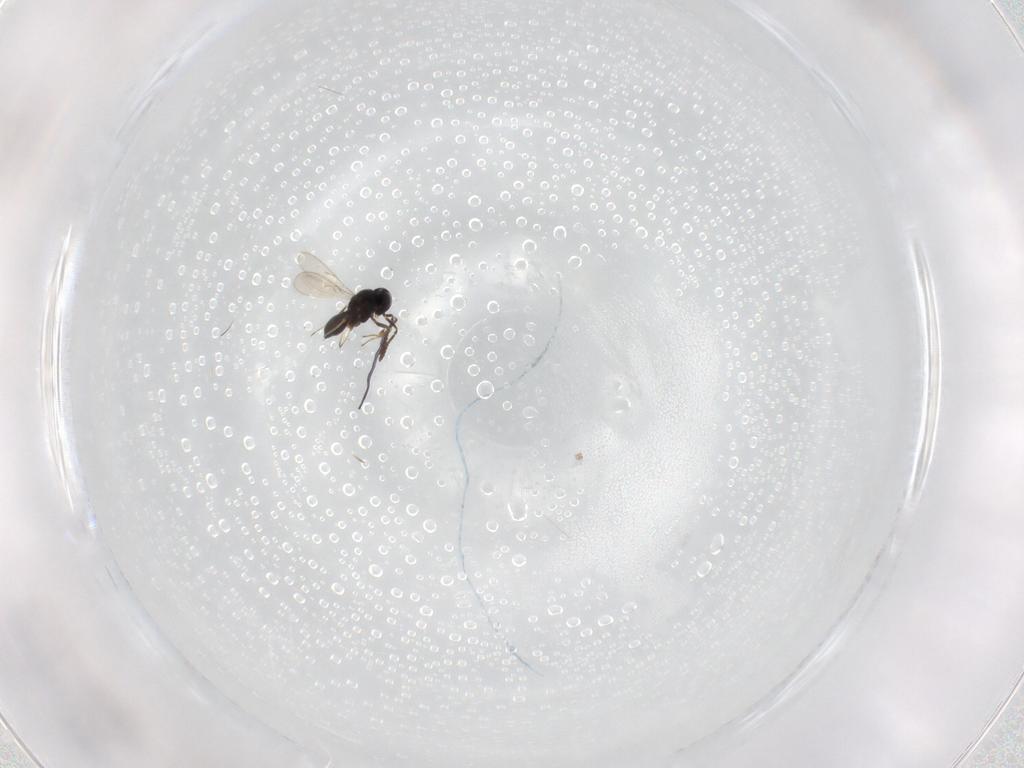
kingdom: Animalia
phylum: Arthropoda
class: Insecta
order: Hymenoptera
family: Scelionidae
